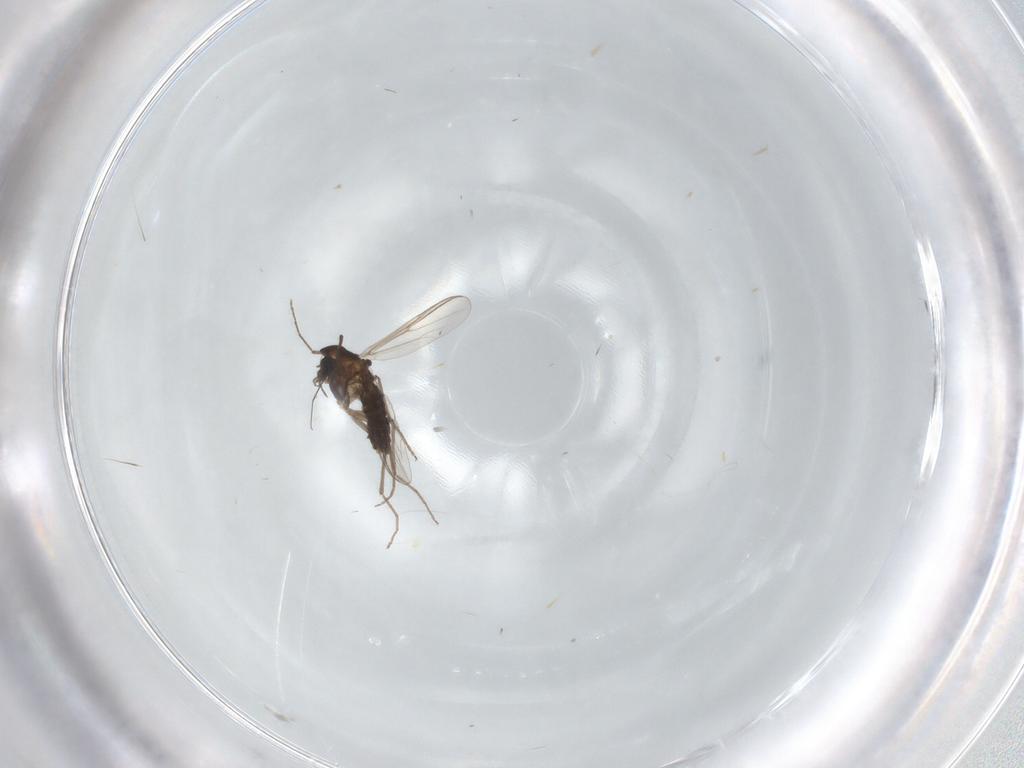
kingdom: Animalia
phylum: Arthropoda
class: Insecta
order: Diptera
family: Chironomidae
